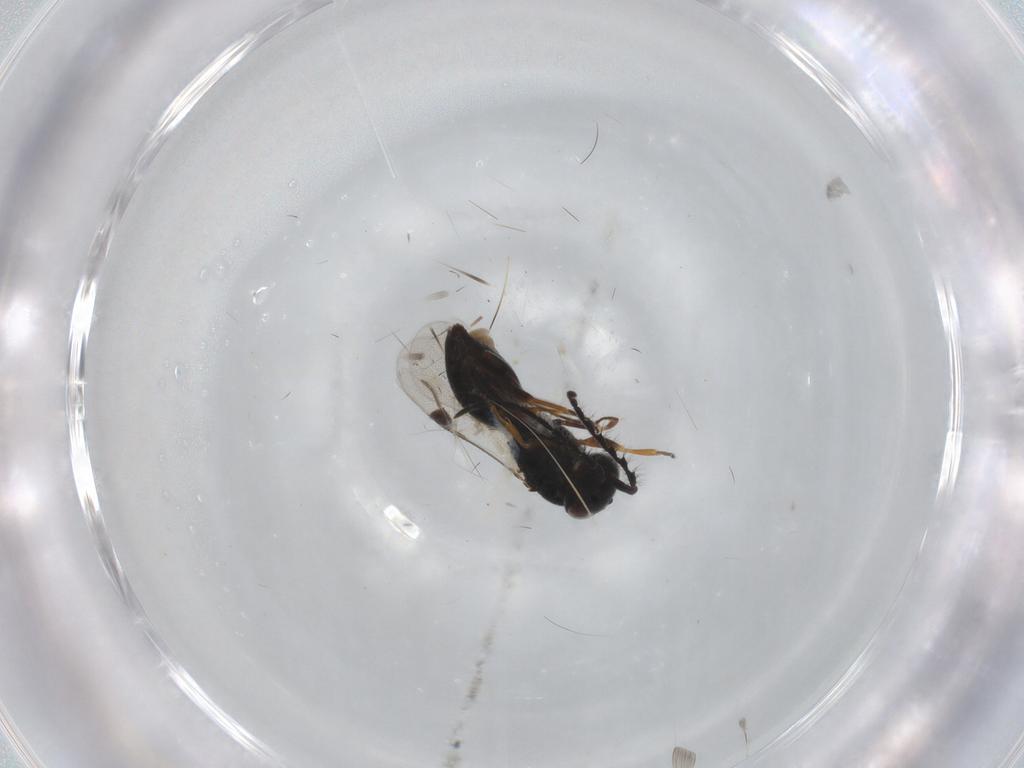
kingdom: Animalia
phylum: Arthropoda
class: Insecta
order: Hymenoptera
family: Pompilidae
